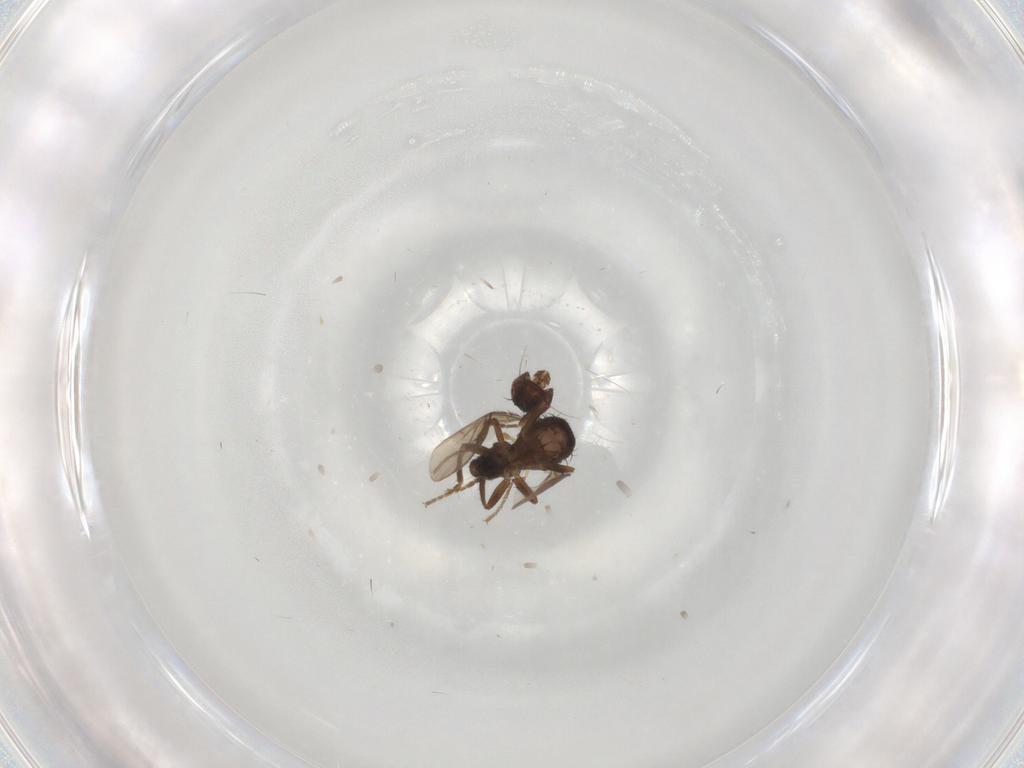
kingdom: Animalia
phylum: Arthropoda
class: Insecta
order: Diptera
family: Sphaeroceridae
